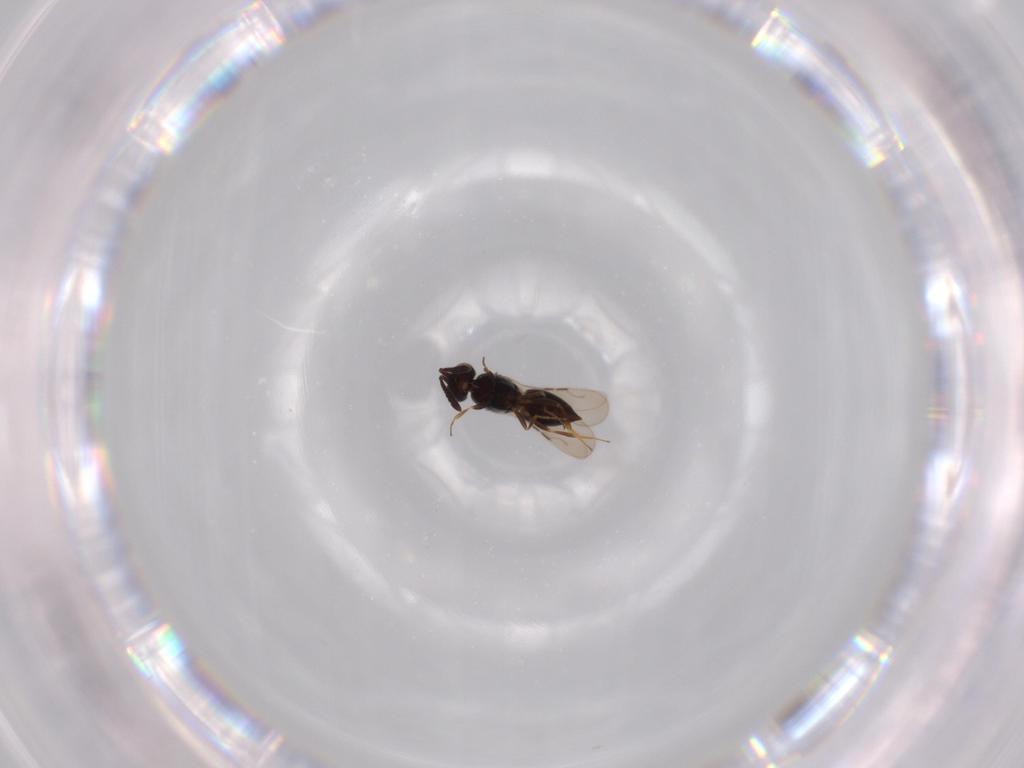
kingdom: Animalia
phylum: Arthropoda
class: Insecta
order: Hymenoptera
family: Ceraphronidae
